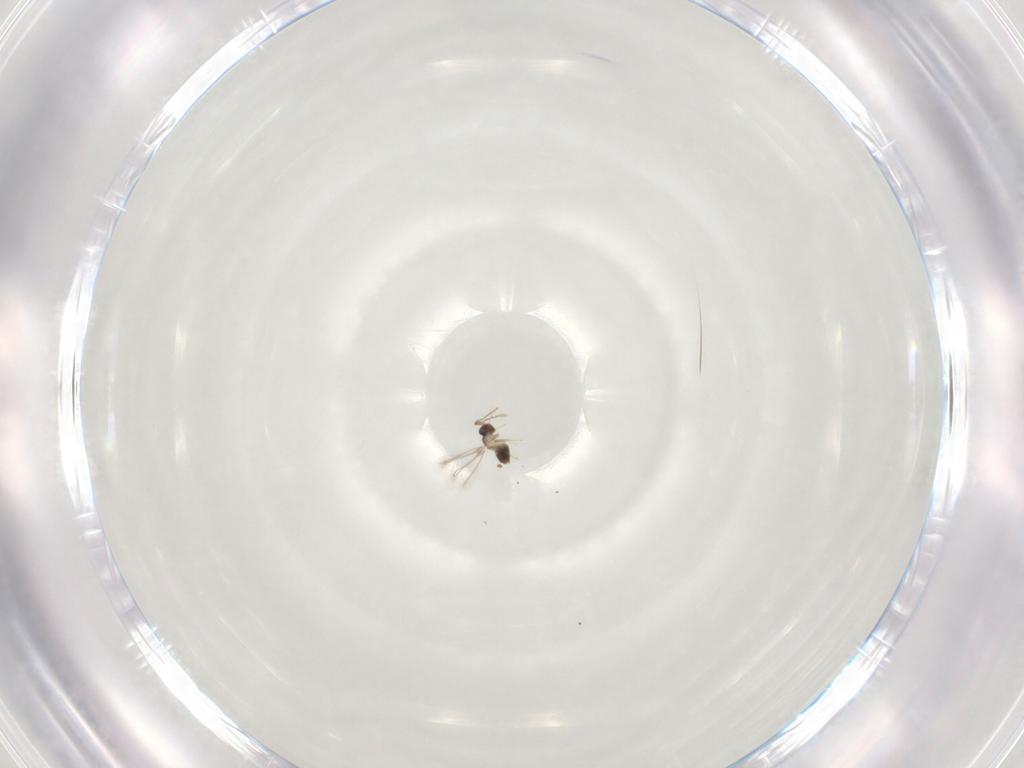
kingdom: Animalia
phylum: Arthropoda
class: Insecta
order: Hymenoptera
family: Mymaridae
